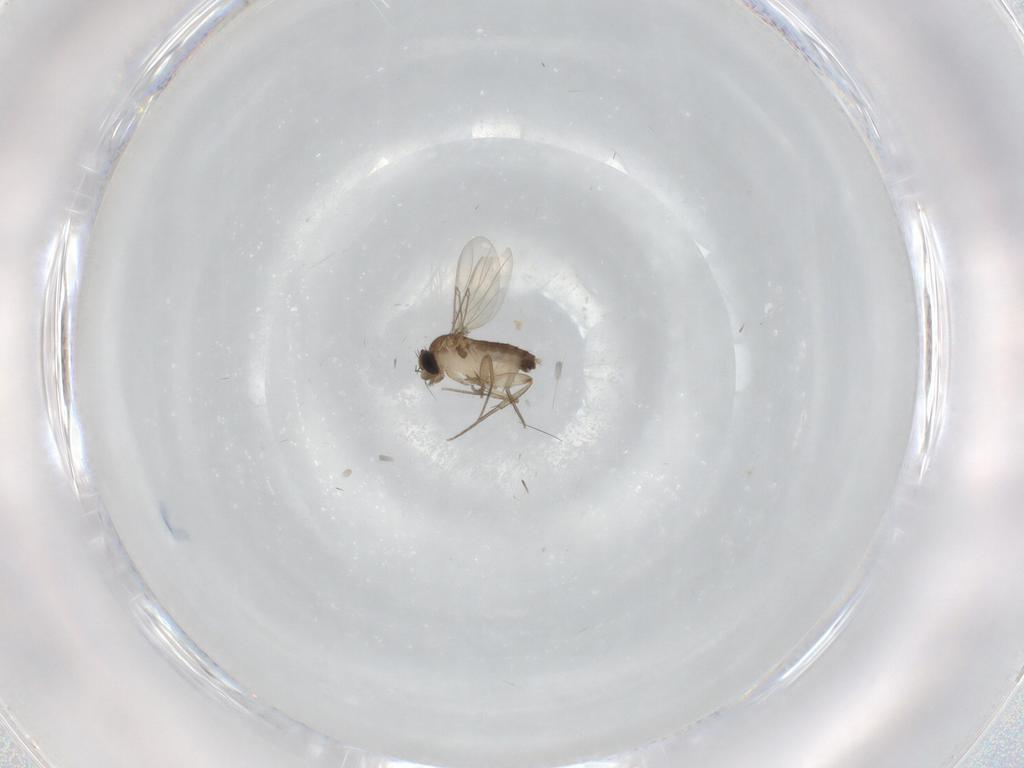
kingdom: Animalia
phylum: Arthropoda
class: Insecta
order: Diptera
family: Phoridae
